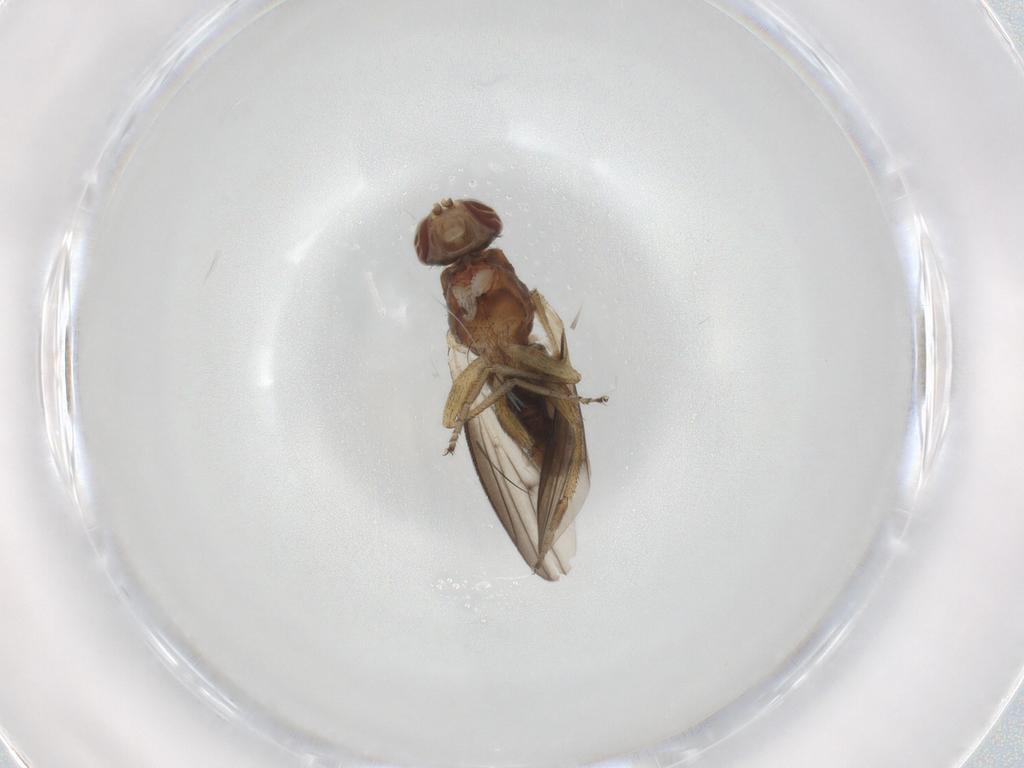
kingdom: Animalia
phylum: Arthropoda
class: Insecta
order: Diptera
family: Heleomyzidae
